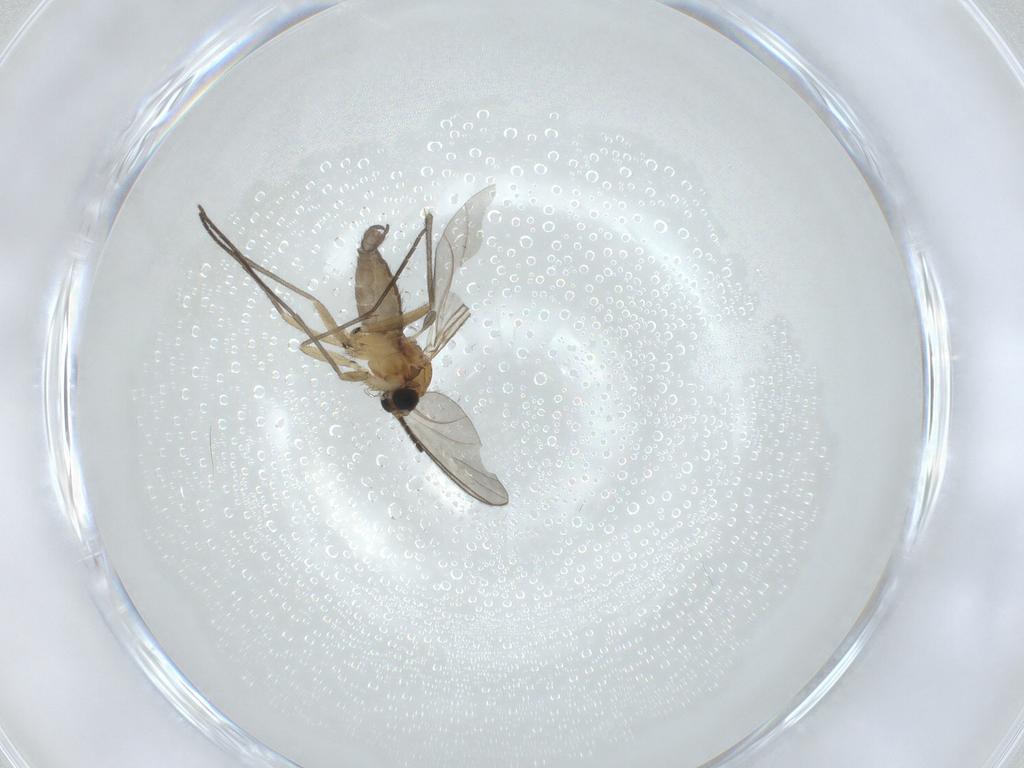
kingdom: Animalia
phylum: Arthropoda
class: Insecta
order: Diptera
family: Sciaridae
